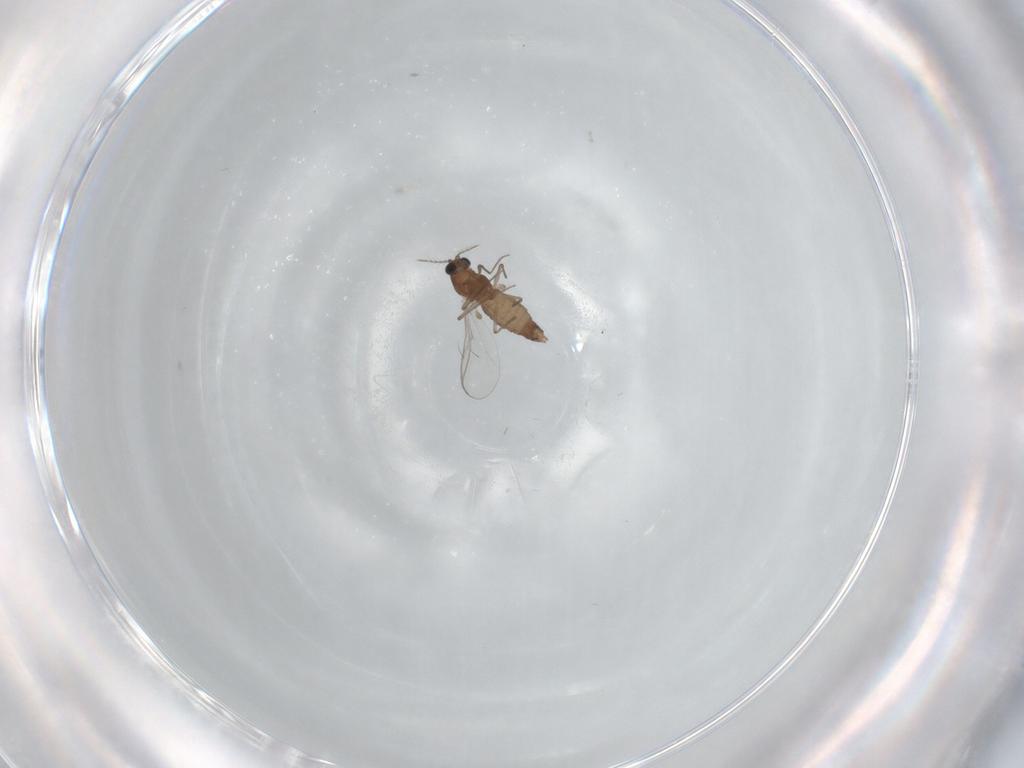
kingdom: Animalia
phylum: Arthropoda
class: Insecta
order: Diptera
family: Chironomidae
